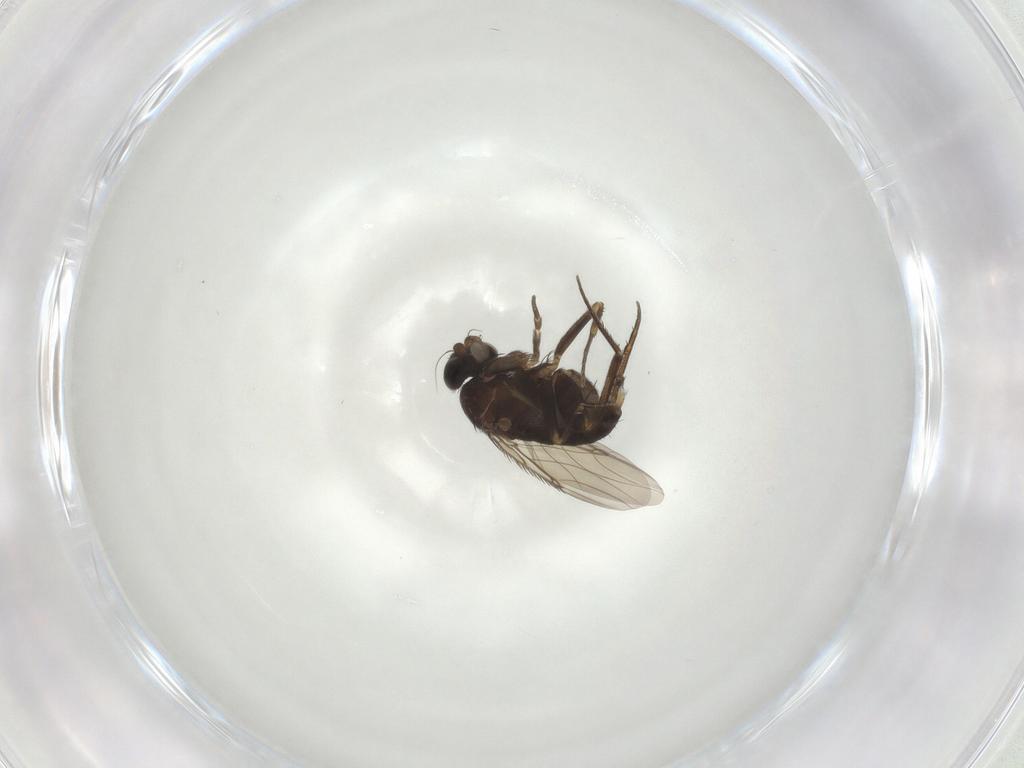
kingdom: Animalia
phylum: Arthropoda
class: Insecta
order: Diptera
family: Phoridae
